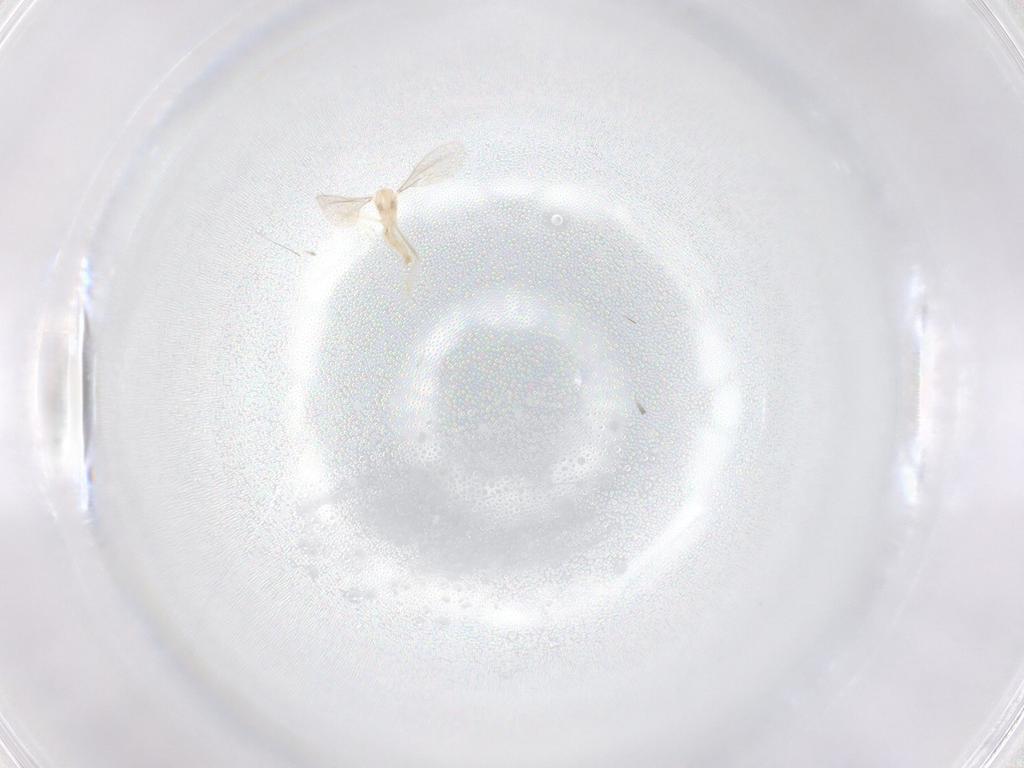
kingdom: Animalia
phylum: Arthropoda
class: Insecta
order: Diptera
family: Cecidomyiidae
